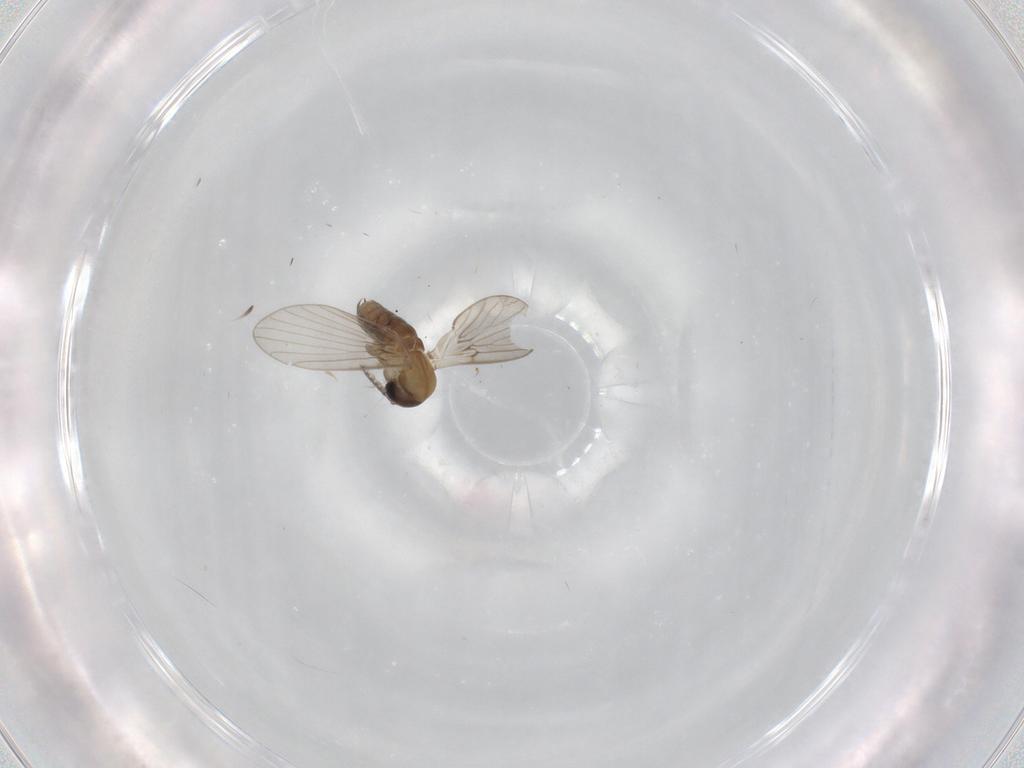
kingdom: Animalia
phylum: Arthropoda
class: Insecta
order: Diptera
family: Psychodidae
